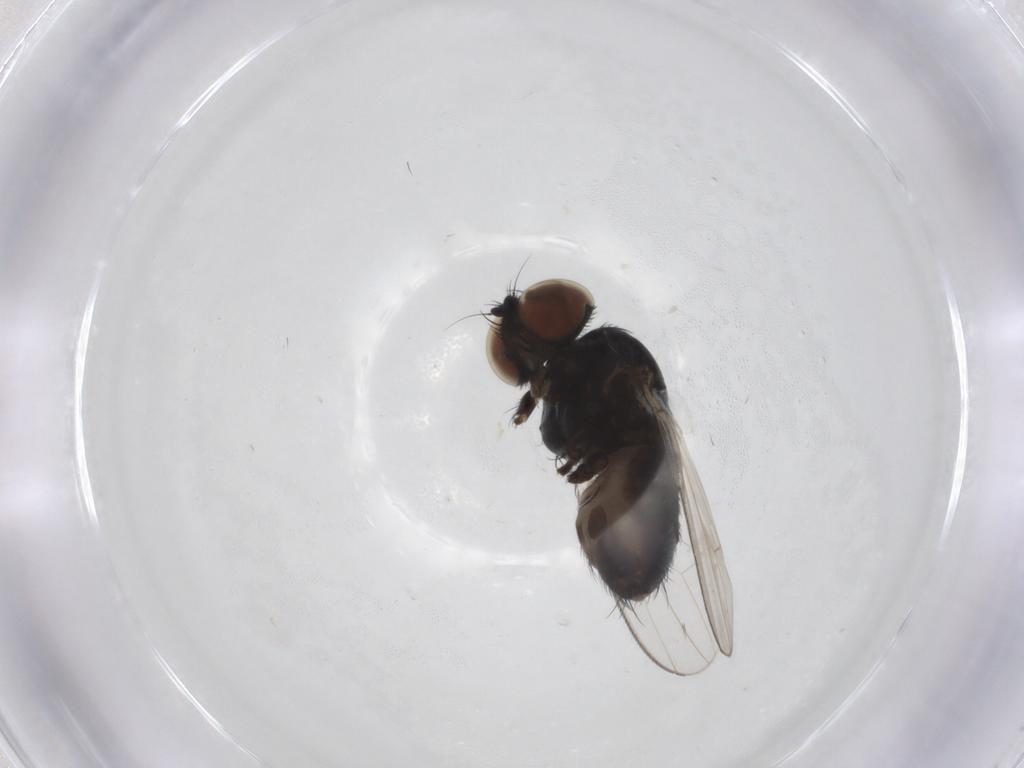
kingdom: Animalia
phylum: Arthropoda
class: Insecta
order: Diptera
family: Milichiidae
